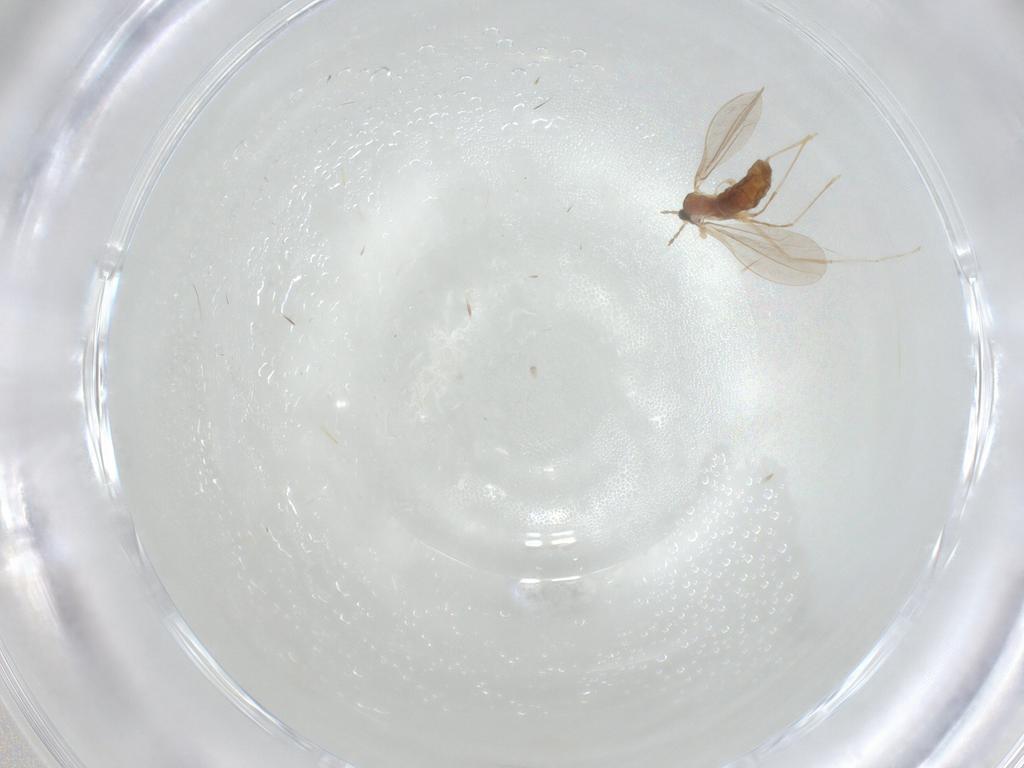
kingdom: Animalia
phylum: Arthropoda
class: Insecta
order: Diptera
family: Cecidomyiidae
